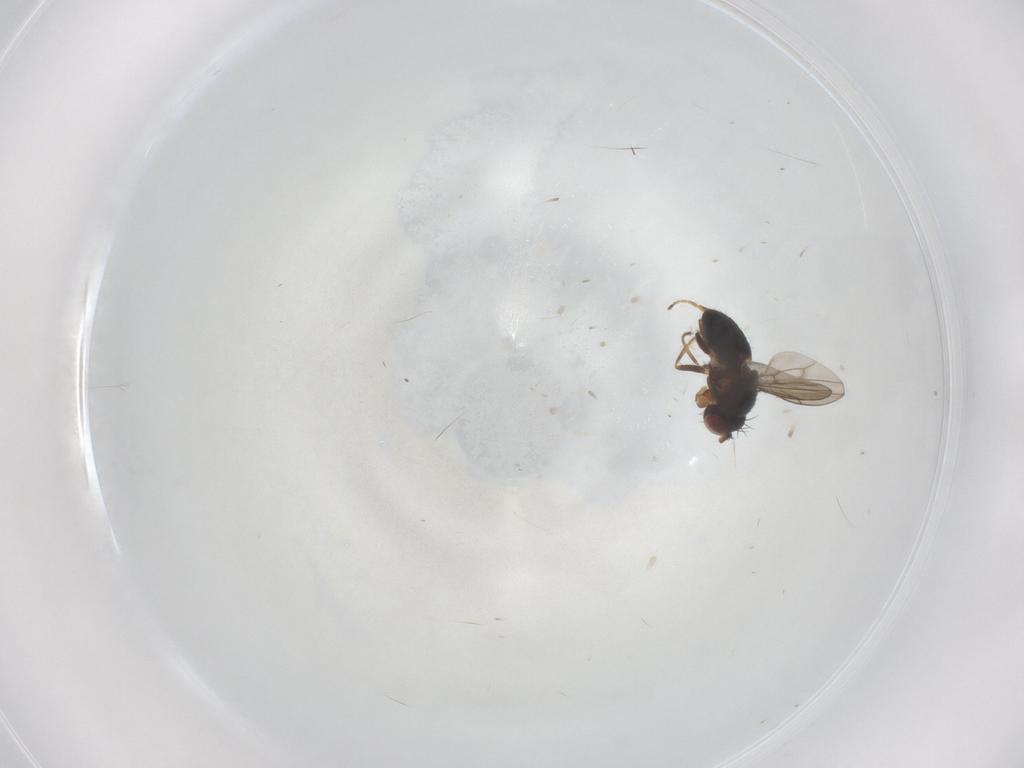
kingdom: Animalia
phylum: Arthropoda
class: Insecta
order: Diptera
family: Ephydridae
